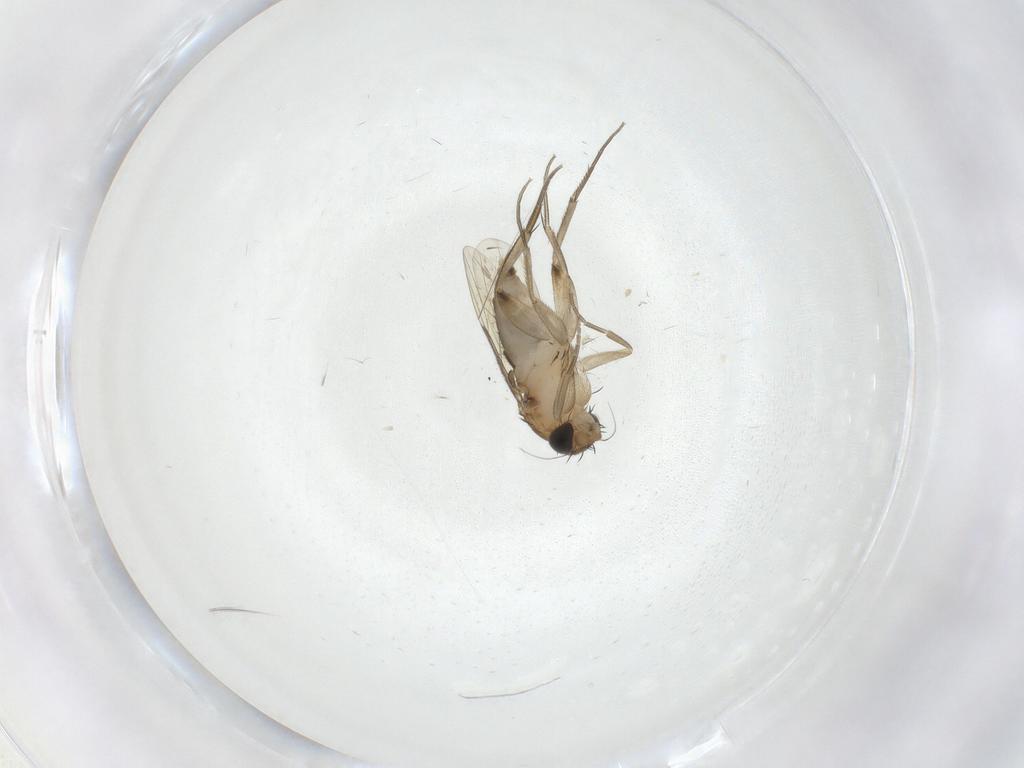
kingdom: Animalia
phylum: Arthropoda
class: Insecta
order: Diptera
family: Phoridae
